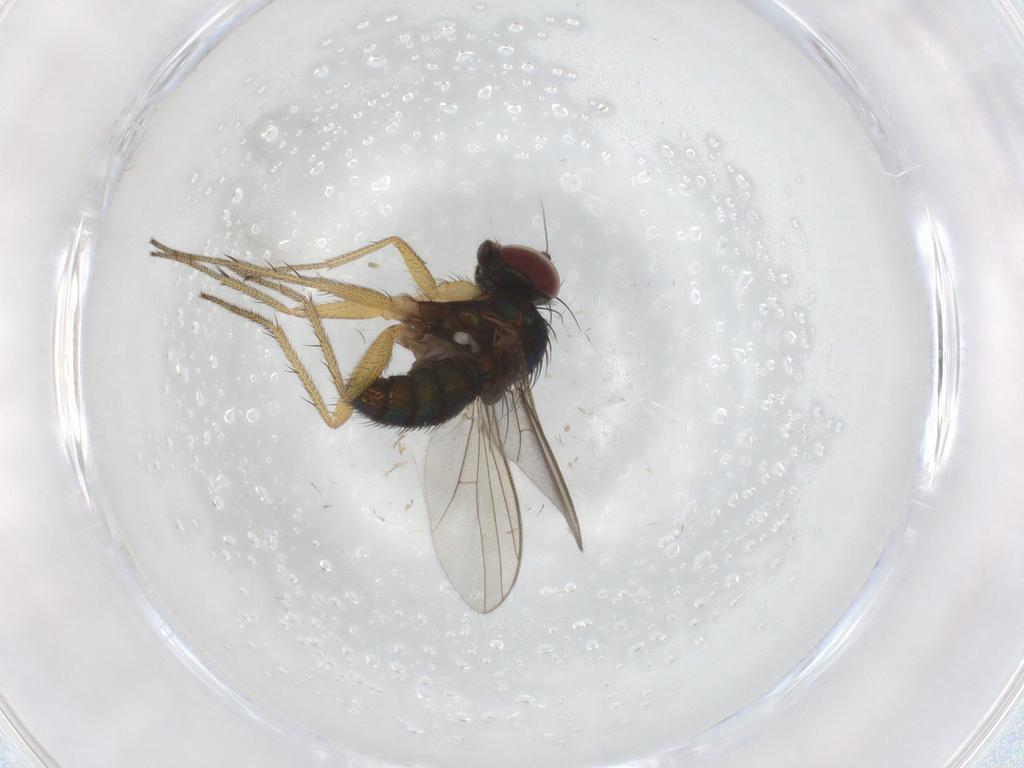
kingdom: Animalia
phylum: Arthropoda
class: Insecta
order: Diptera
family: Dolichopodidae
